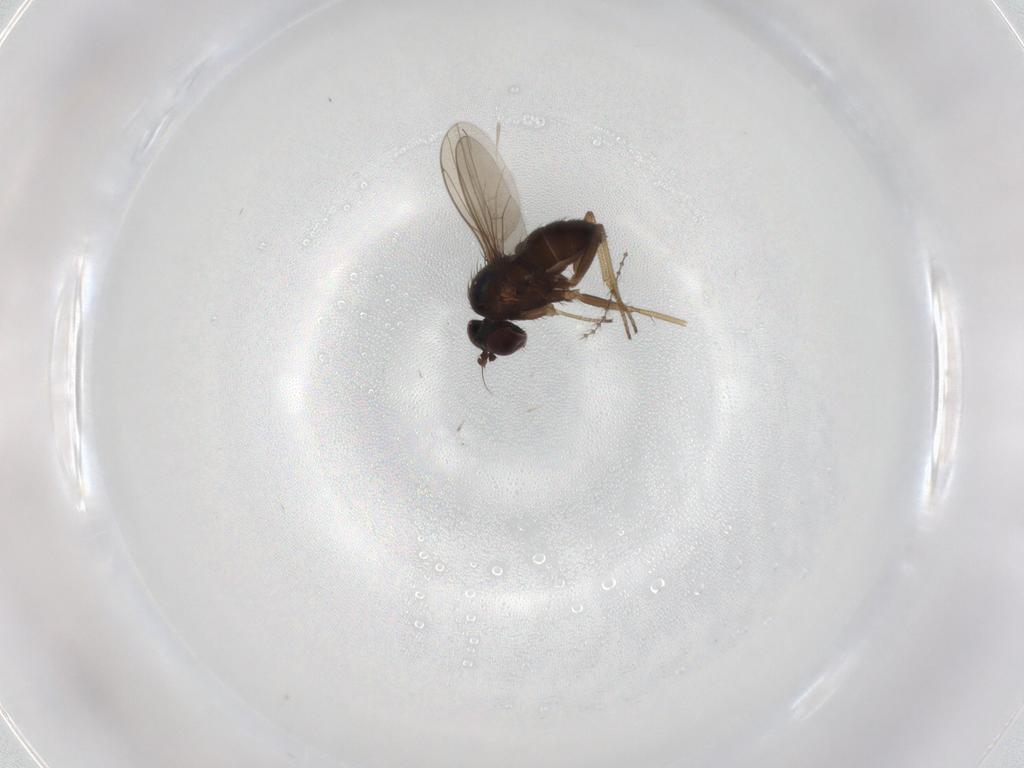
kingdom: Animalia
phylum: Arthropoda
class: Insecta
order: Diptera
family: Dolichopodidae
